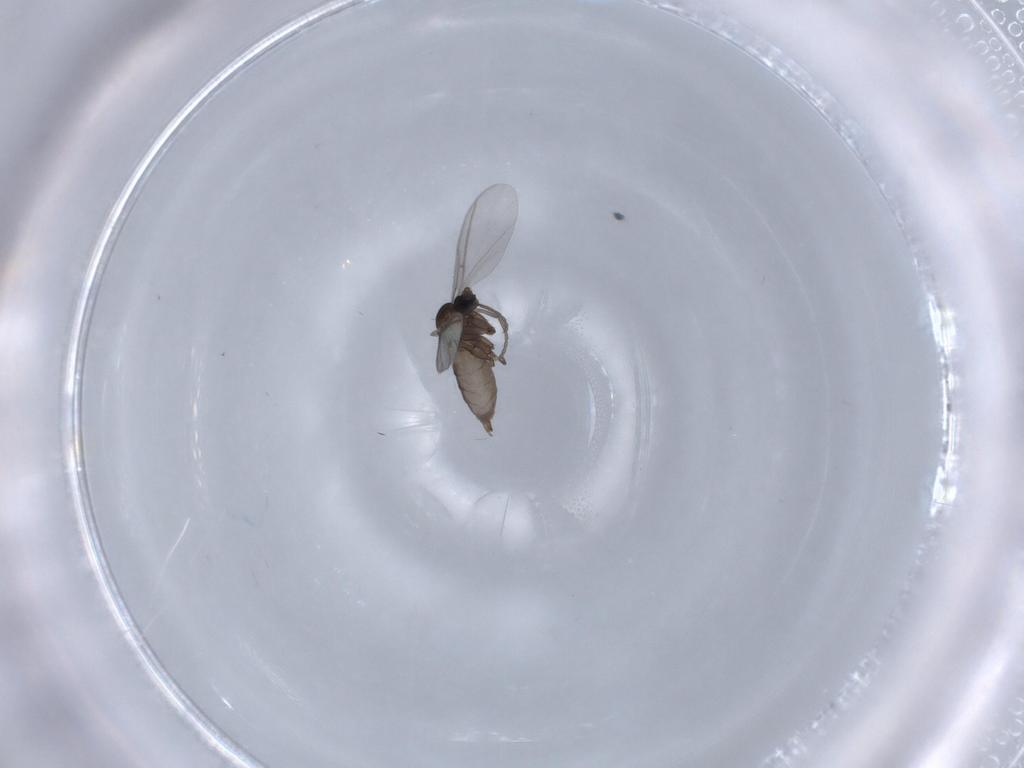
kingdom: Animalia
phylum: Arthropoda
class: Insecta
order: Diptera
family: Sciaridae
